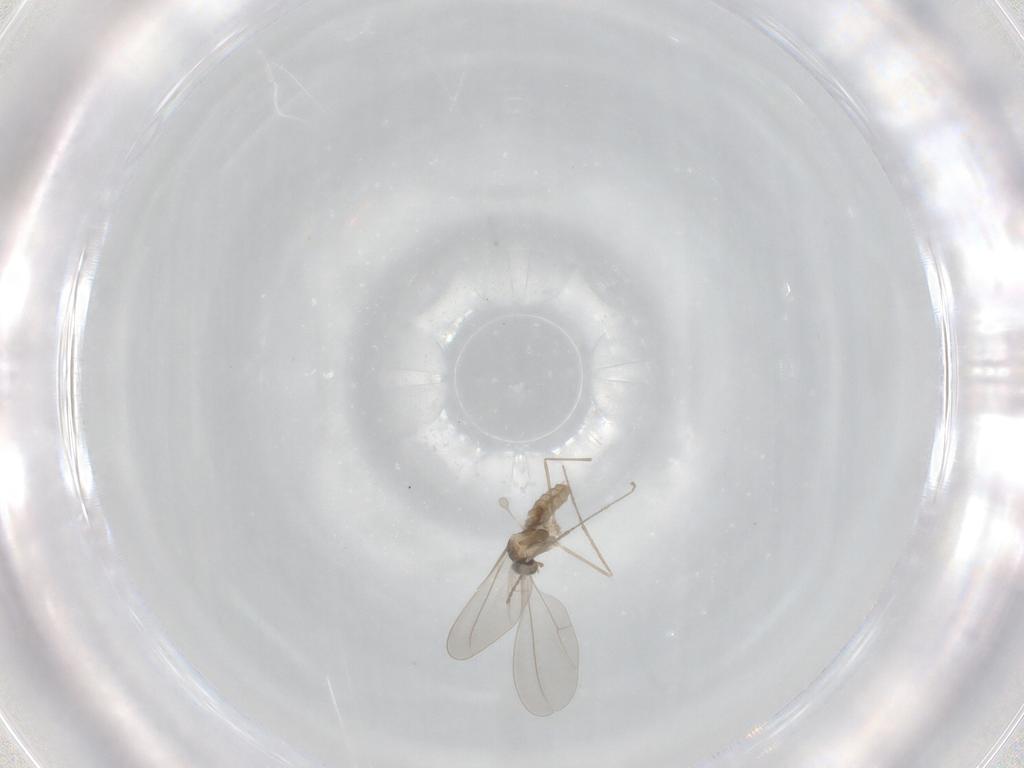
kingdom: Animalia
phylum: Arthropoda
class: Insecta
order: Diptera
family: Cecidomyiidae
